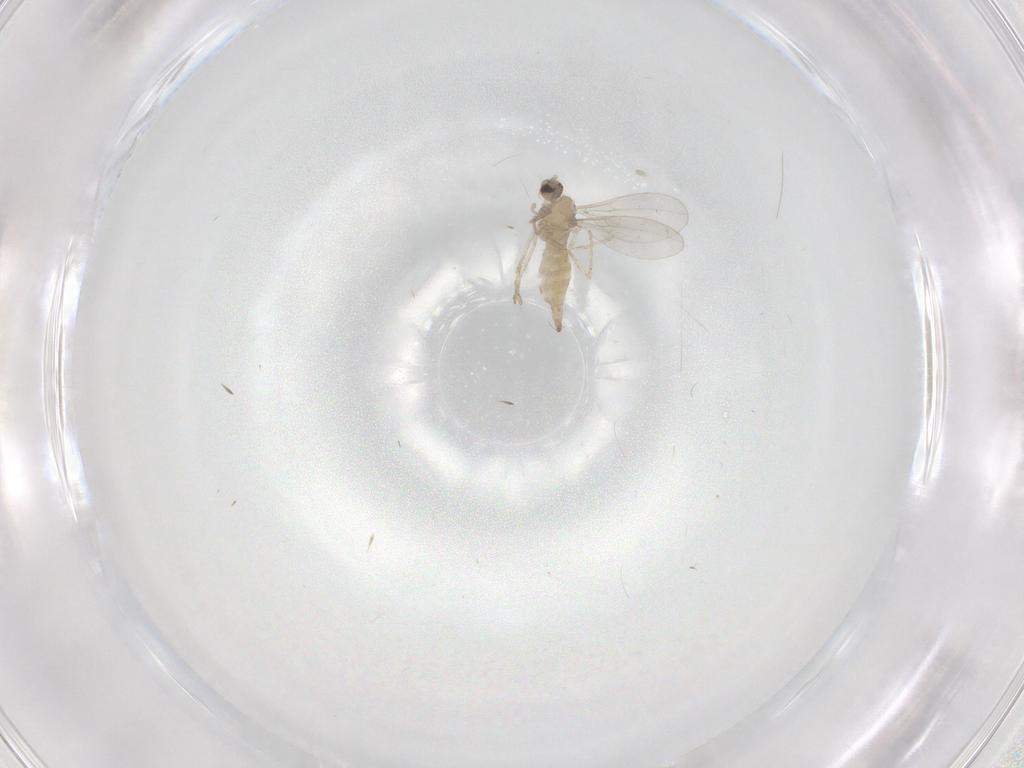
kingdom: Animalia
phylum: Arthropoda
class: Insecta
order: Diptera
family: Cecidomyiidae
